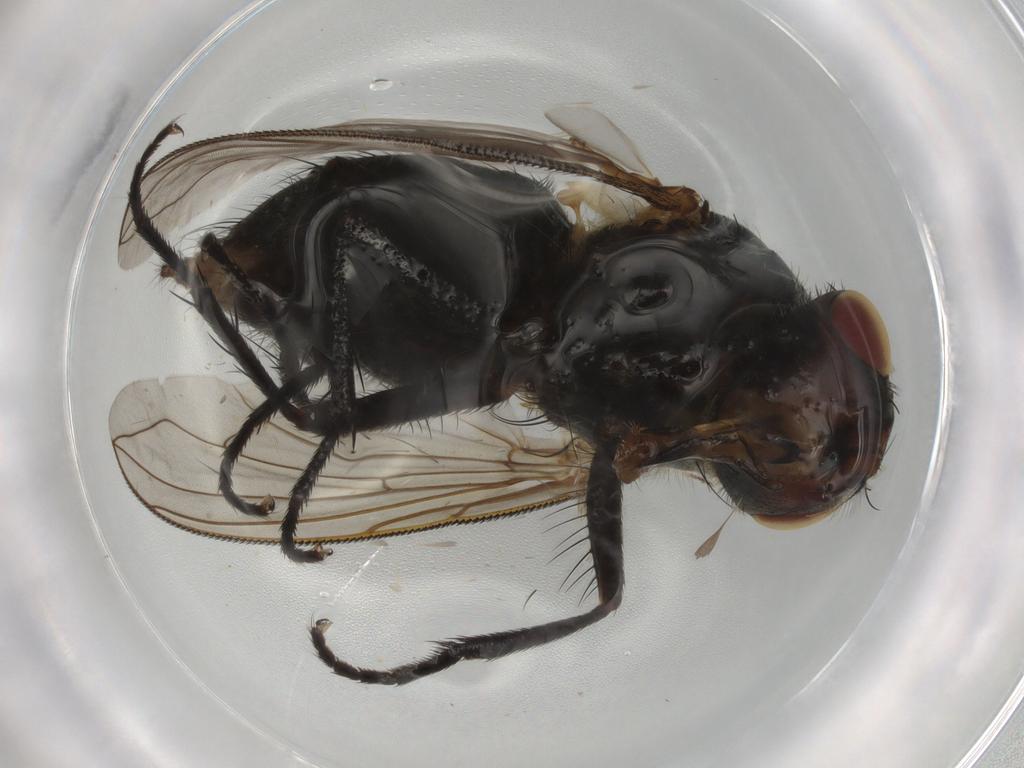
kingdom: Animalia
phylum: Arthropoda
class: Insecta
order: Diptera
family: Polleniidae
